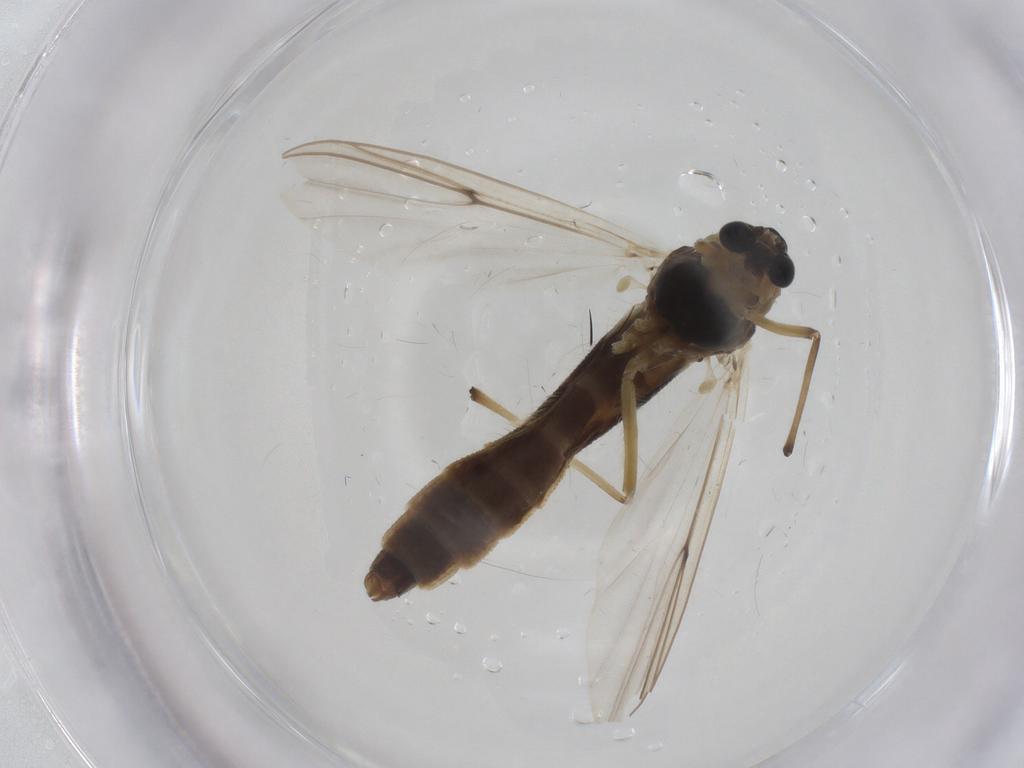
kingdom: Animalia
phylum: Arthropoda
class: Insecta
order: Diptera
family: Chironomidae
